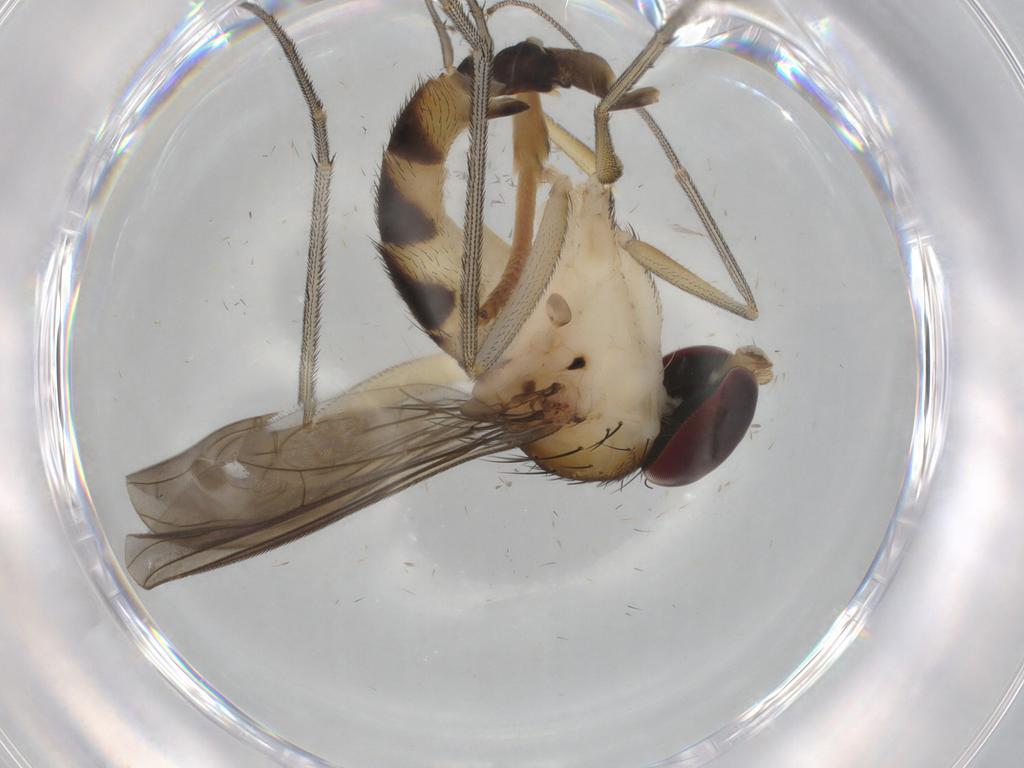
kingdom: Animalia
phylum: Arthropoda
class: Insecta
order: Diptera
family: Dolichopodidae
